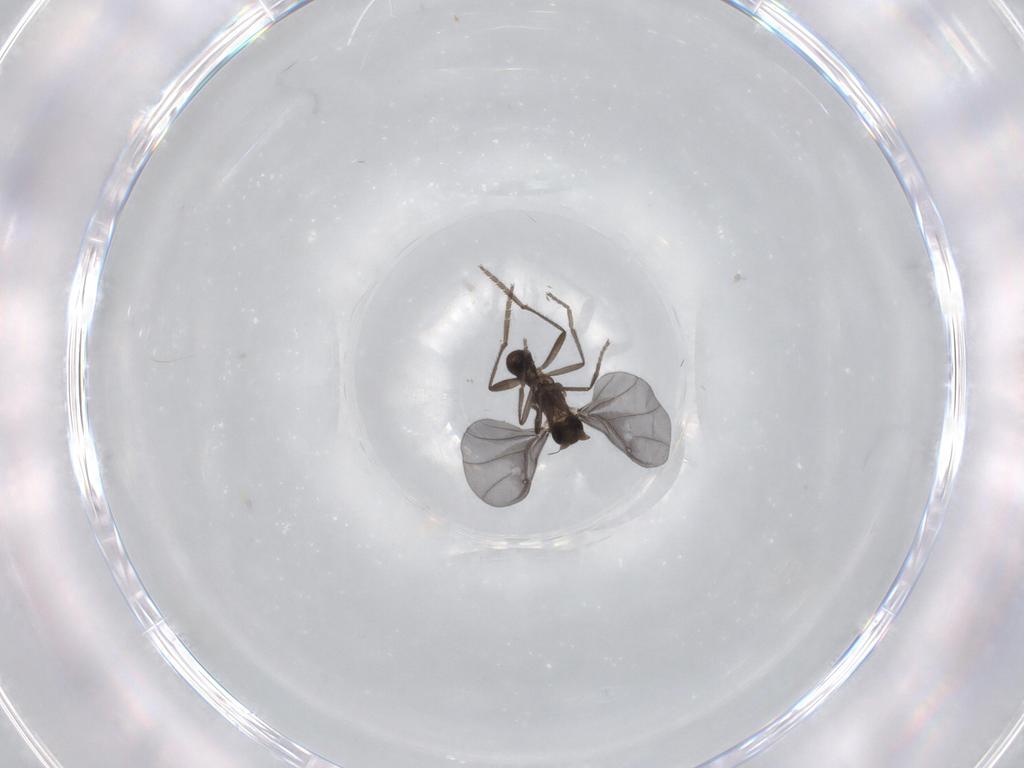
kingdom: Animalia
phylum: Arthropoda
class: Insecta
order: Diptera
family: Phoridae
